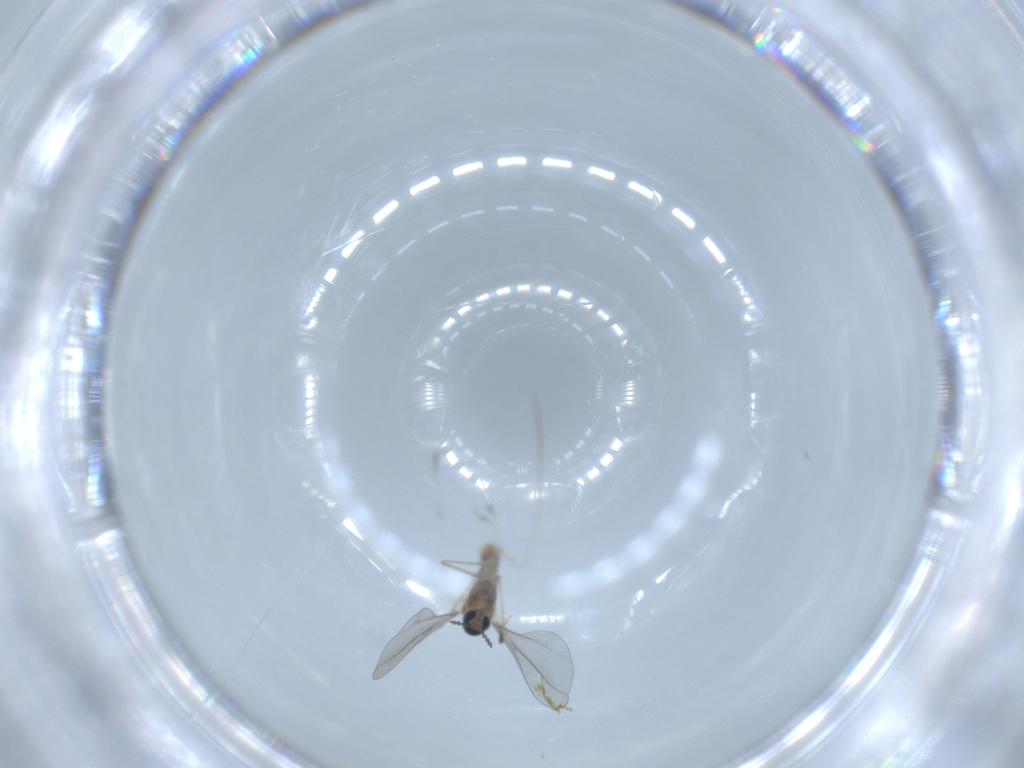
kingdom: Animalia
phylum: Arthropoda
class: Insecta
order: Diptera
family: Cecidomyiidae
